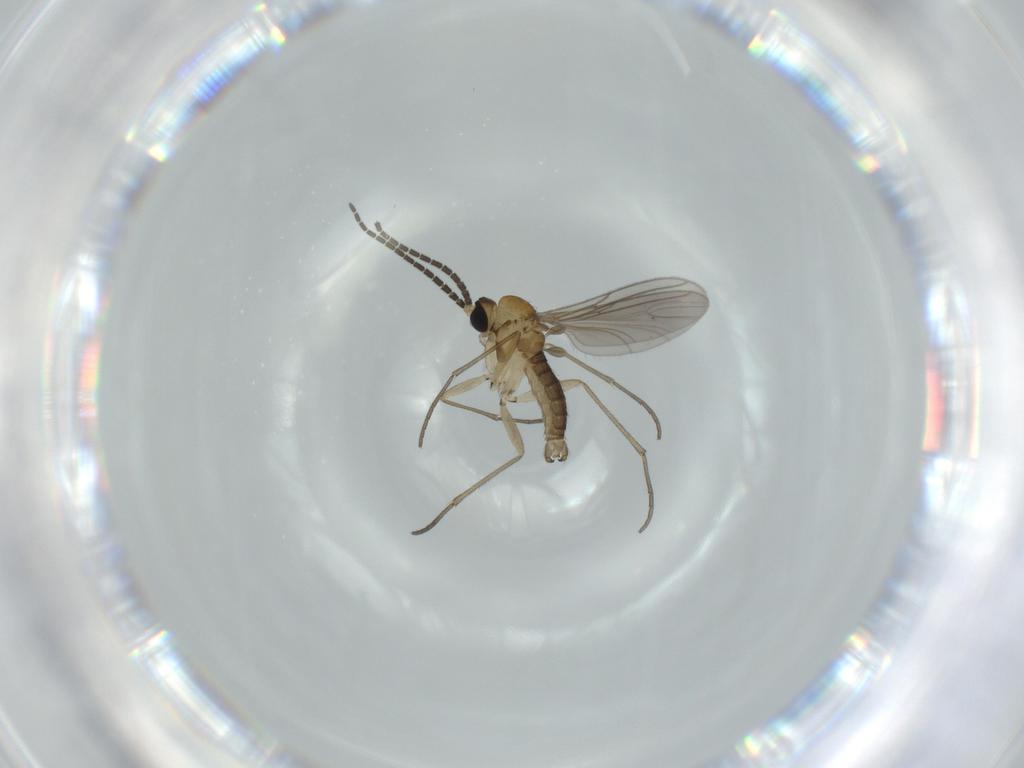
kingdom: Animalia
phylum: Arthropoda
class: Insecta
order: Diptera
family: Sciaridae
